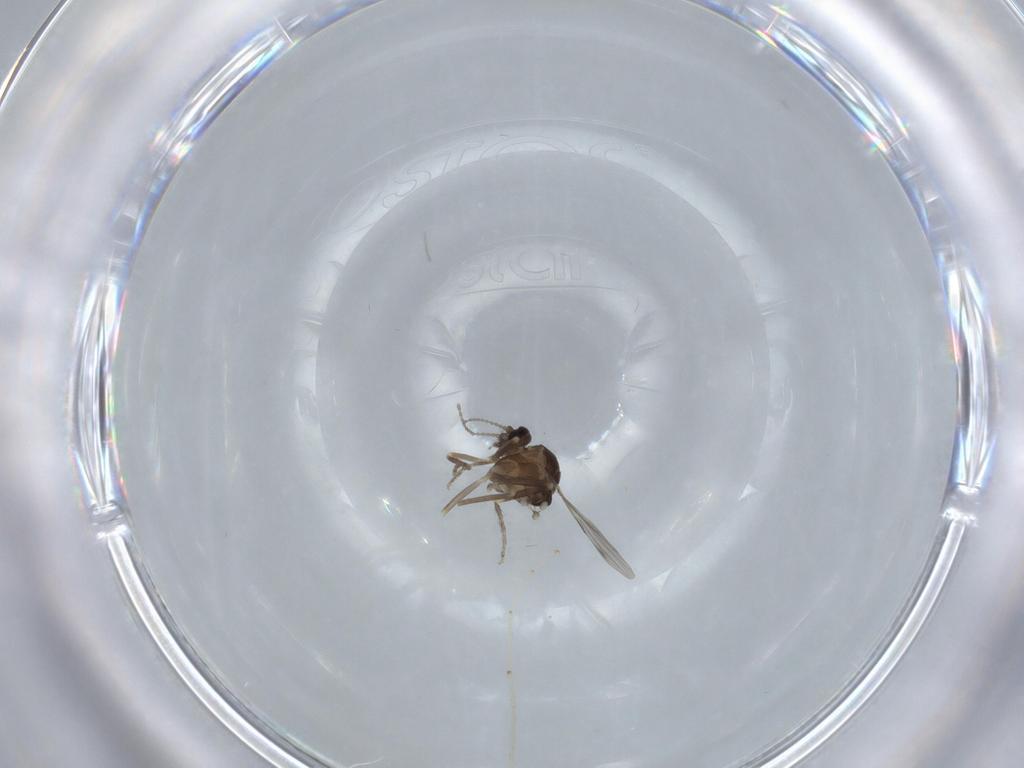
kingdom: Animalia
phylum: Arthropoda
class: Insecta
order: Diptera
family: Ceratopogonidae
